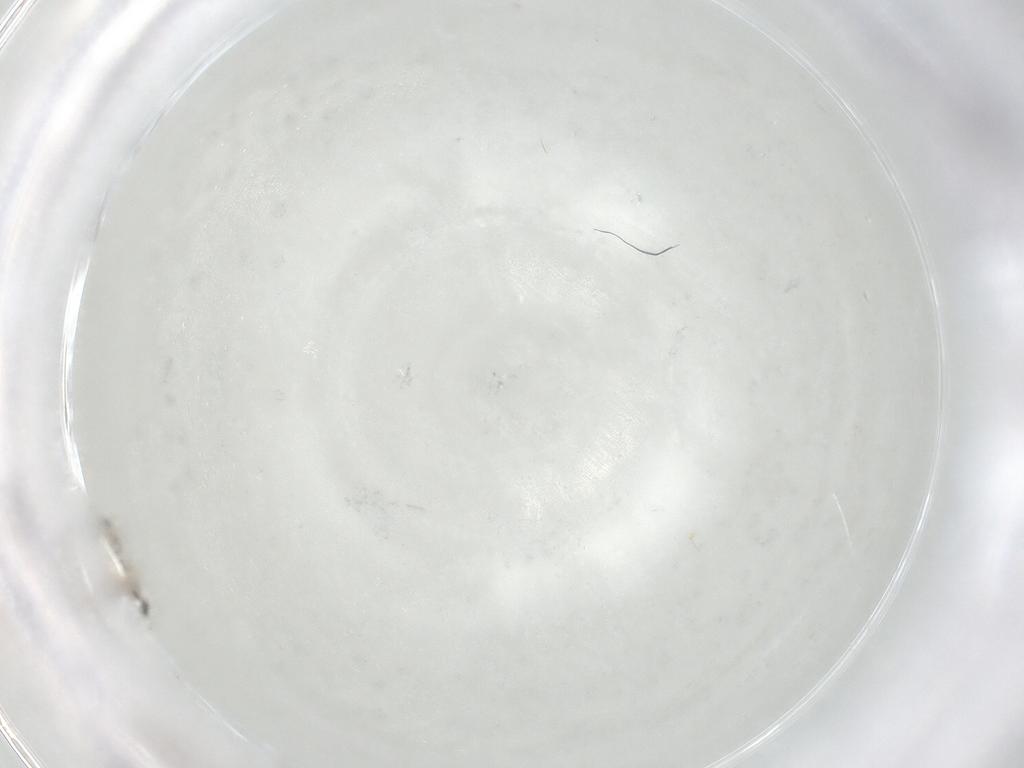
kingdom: Animalia
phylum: Arthropoda
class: Insecta
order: Diptera
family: Cecidomyiidae
